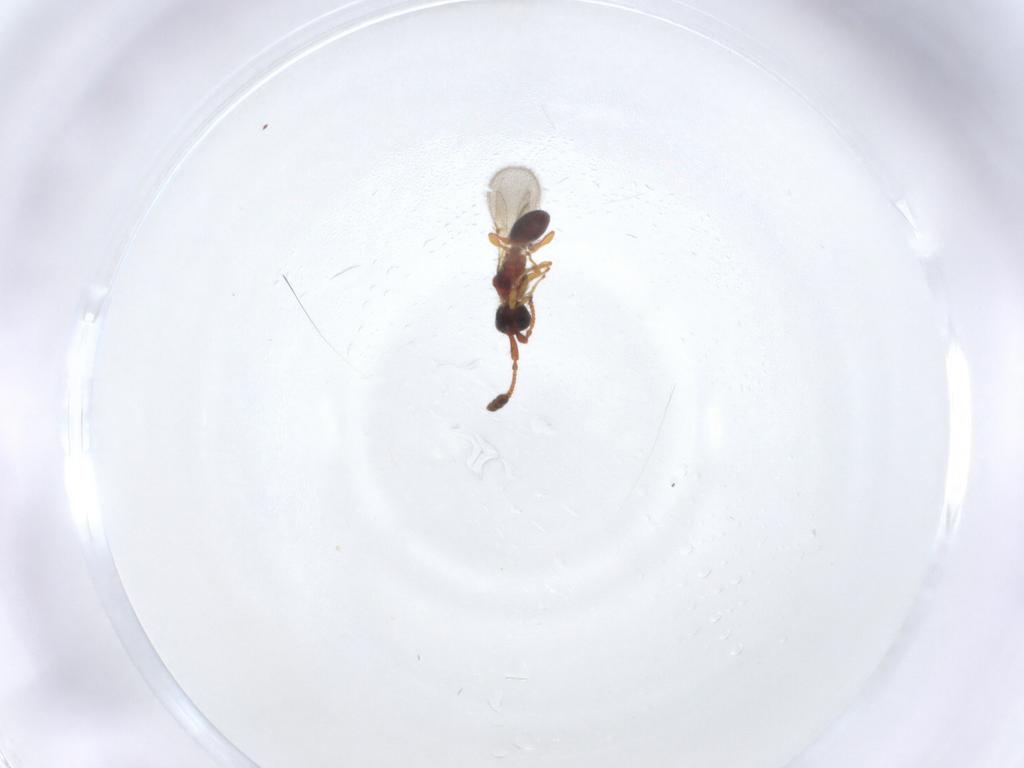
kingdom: Animalia
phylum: Arthropoda
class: Insecta
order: Hymenoptera
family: Diapriidae
